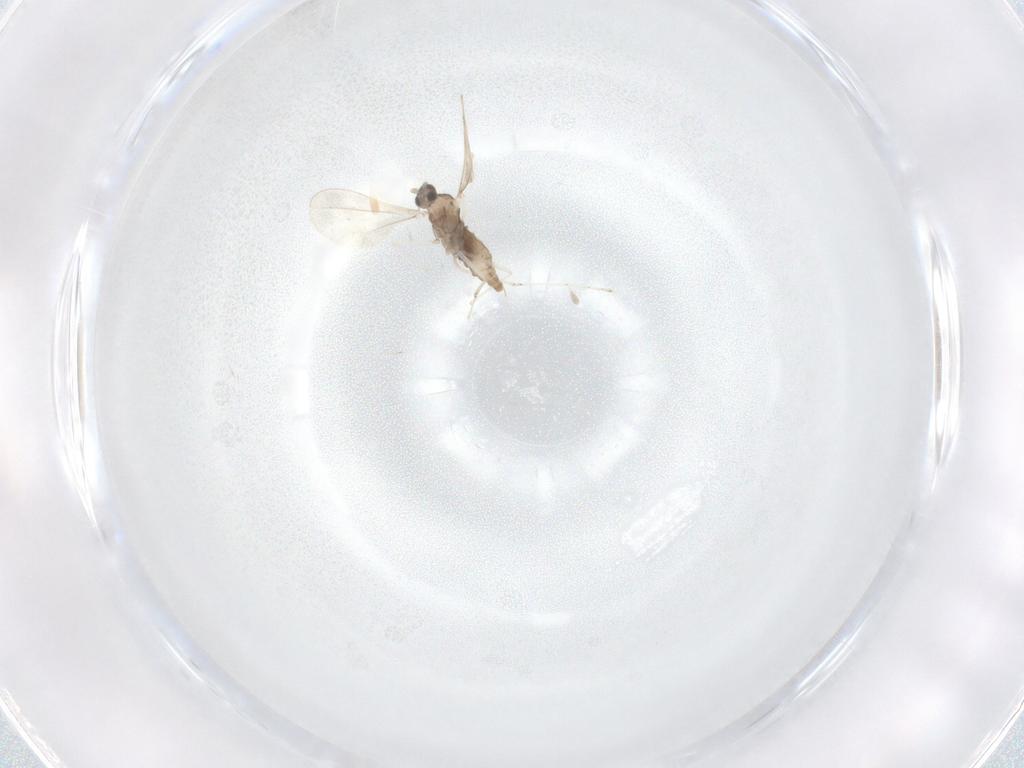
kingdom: Animalia
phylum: Arthropoda
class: Insecta
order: Diptera
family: Cecidomyiidae
